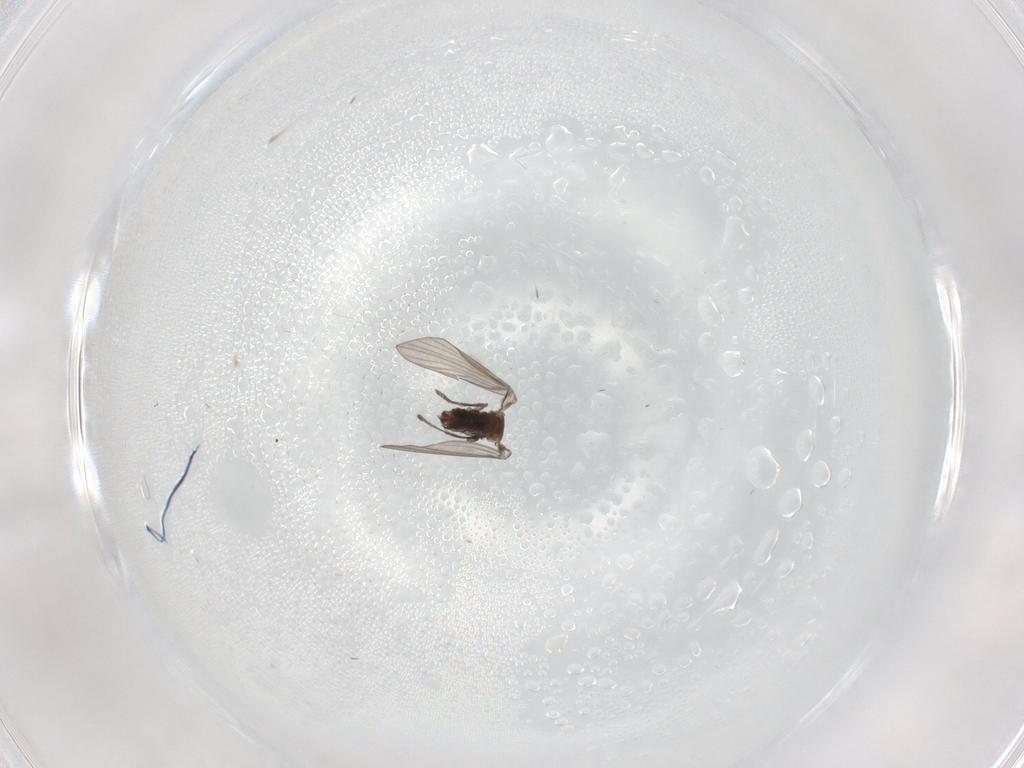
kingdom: Animalia
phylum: Arthropoda
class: Insecta
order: Diptera
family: Psychodidae
